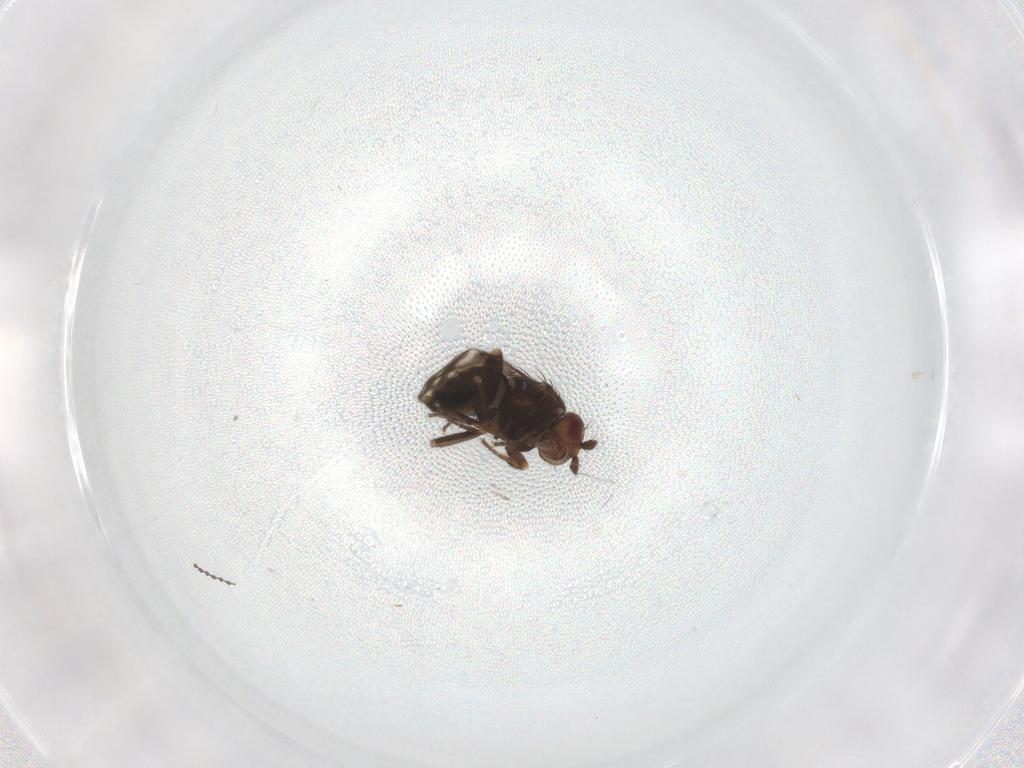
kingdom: Animalia
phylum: Arthropoda
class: Insecta
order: Diptera
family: Sphaeroceridae
